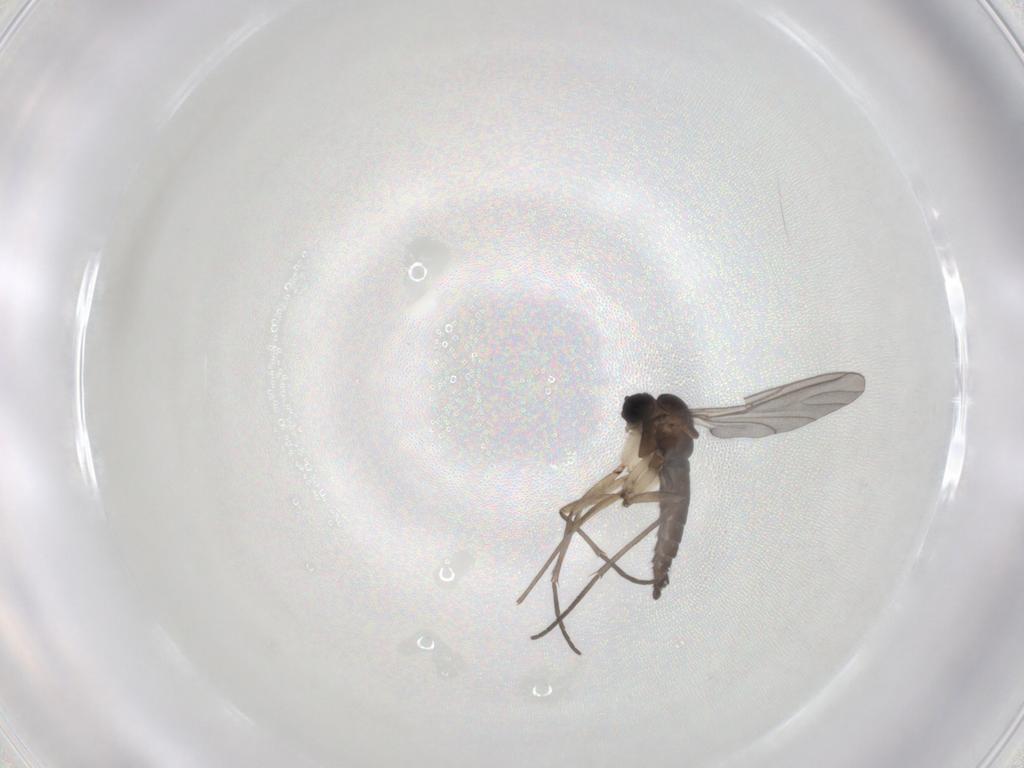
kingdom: Animalia
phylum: Arthropoda
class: Insecta
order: Diptera
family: Sciaridae
